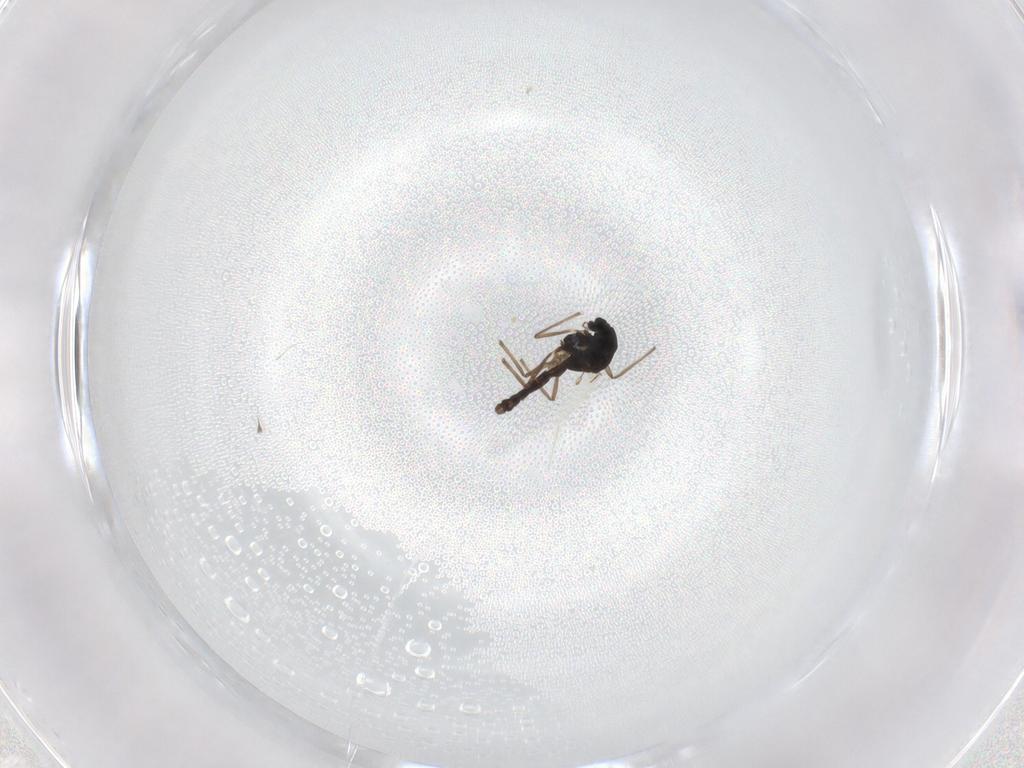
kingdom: Animalia
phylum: Arthropoda
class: Insecta
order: Diptera
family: Chironomidae
